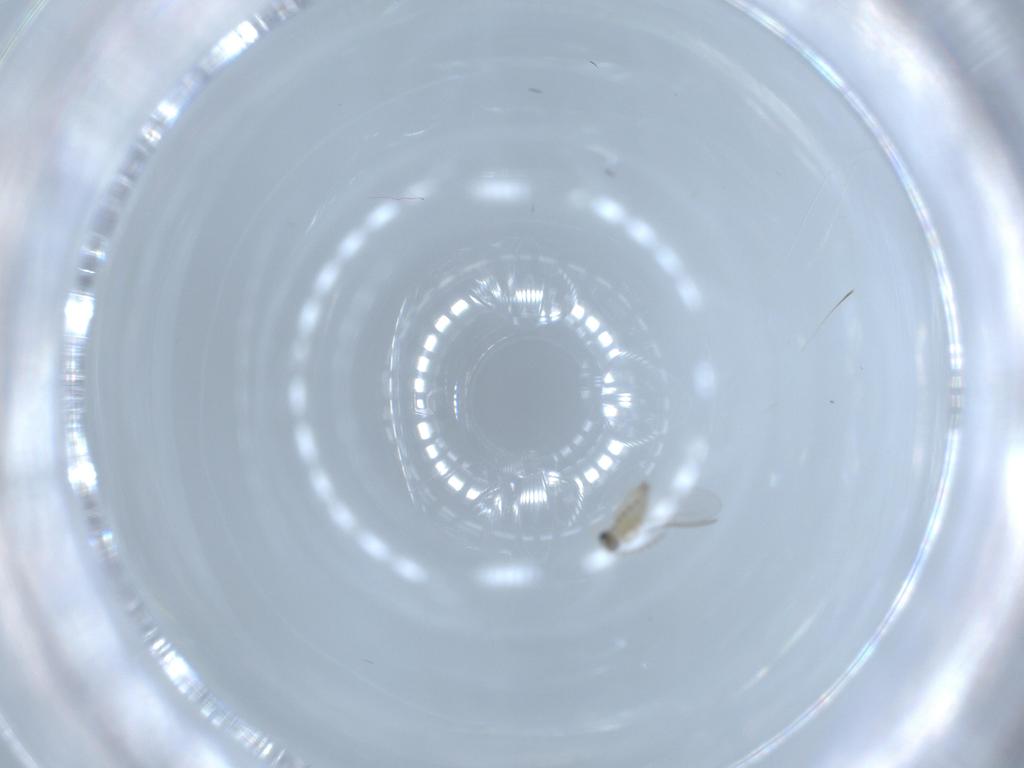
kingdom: Animalia
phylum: Arthropoda
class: Insecta
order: Diptera
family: Cecidomyiidae
